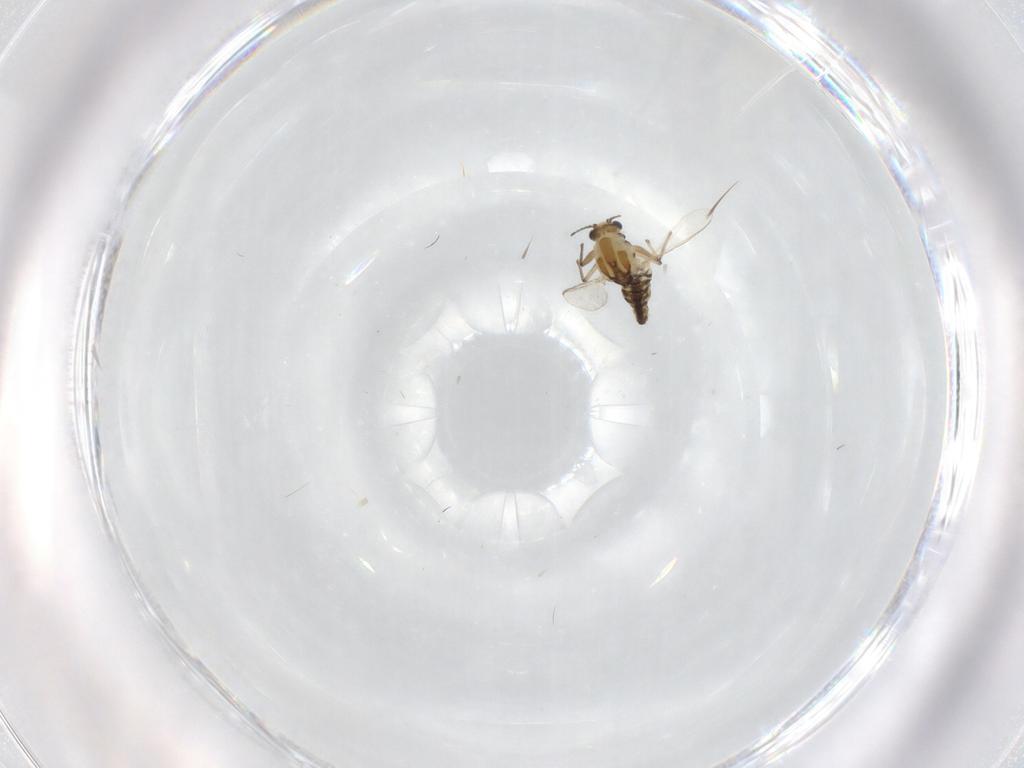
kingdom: Animalia
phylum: Arthropoda
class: Insecta
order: Diptera
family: Chironomidae
